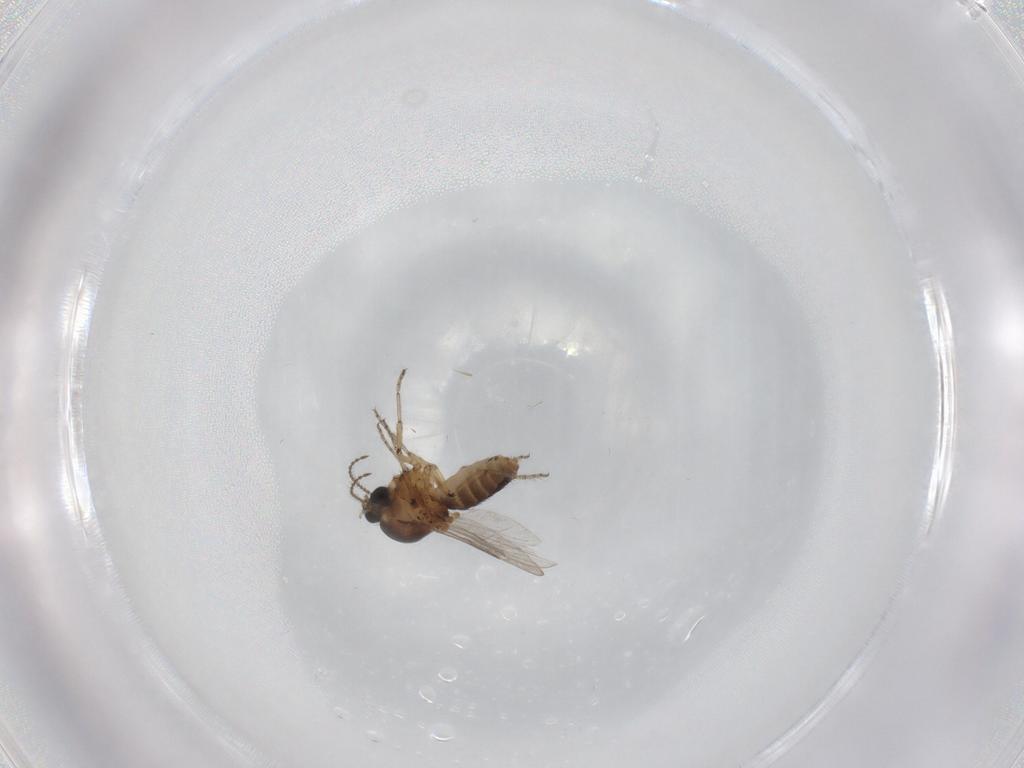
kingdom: Animalia
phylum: Arthropoda
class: Insecta
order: Diptera
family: Ceratopogonidae
